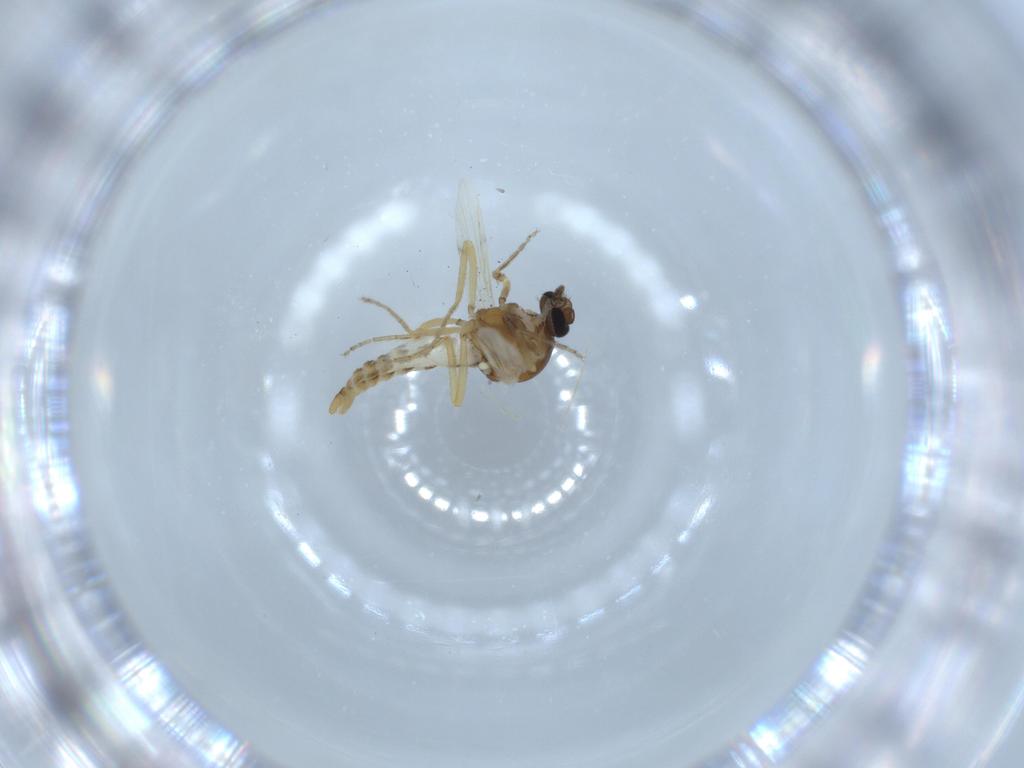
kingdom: Animalia
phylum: Arthropoda
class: Insecta
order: Diptera
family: Ceratopogonidae
